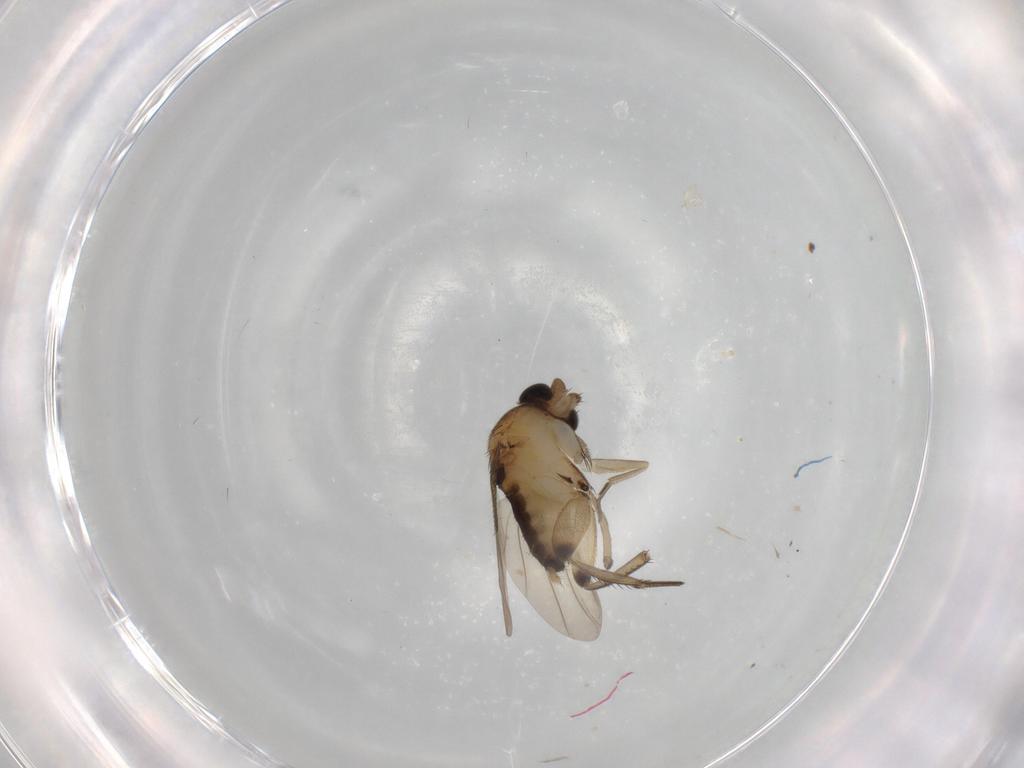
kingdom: Animalia
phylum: Arthropoda
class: Insecta
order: Diptera
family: Phoridae
